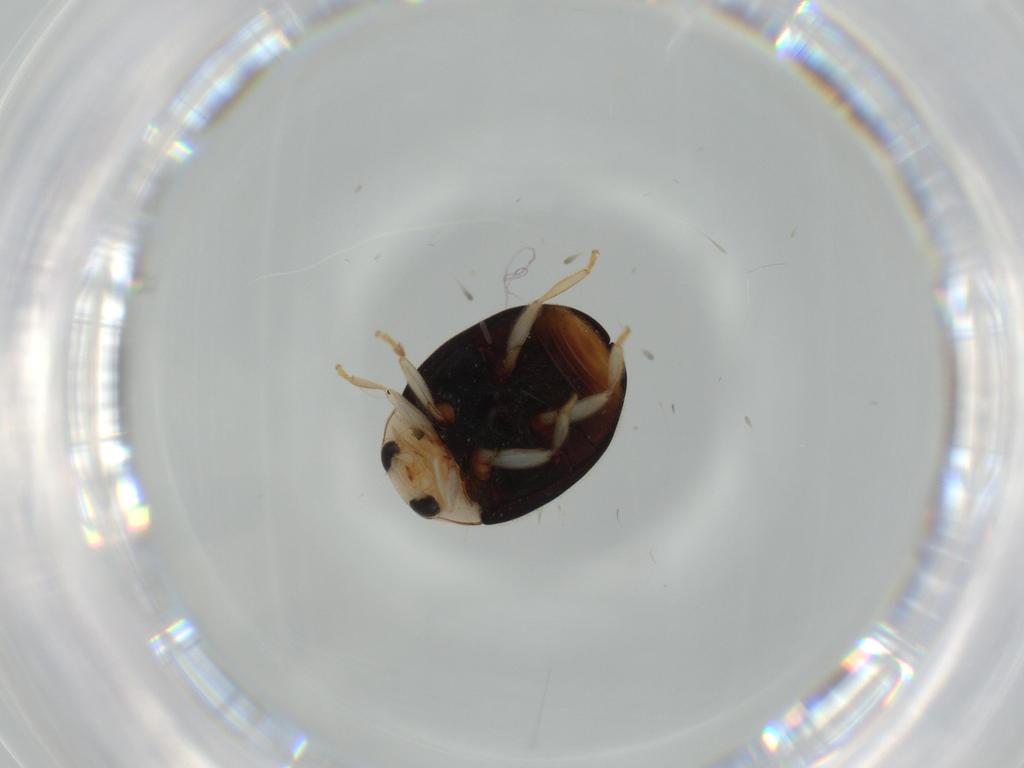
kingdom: Animalia
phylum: Arthropoda
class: Insecta
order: Coleoptera
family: Coccinellidae
